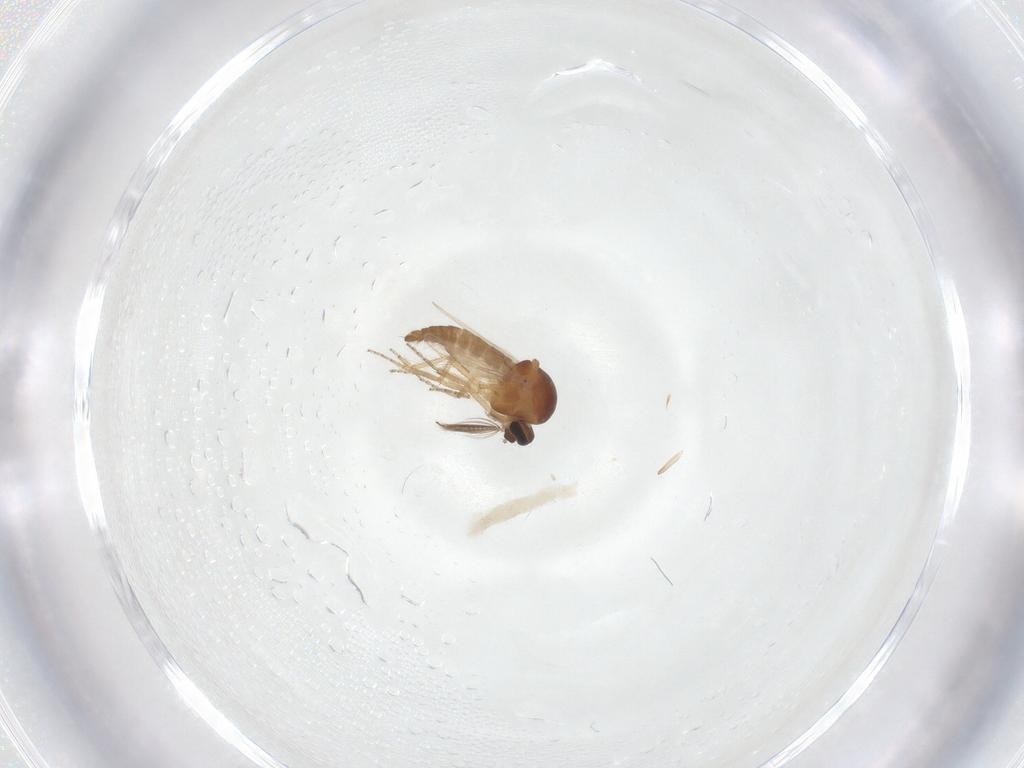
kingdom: Animalia
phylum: Arthropoda
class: Insecta
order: Diptera
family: Ceratopogonidae
